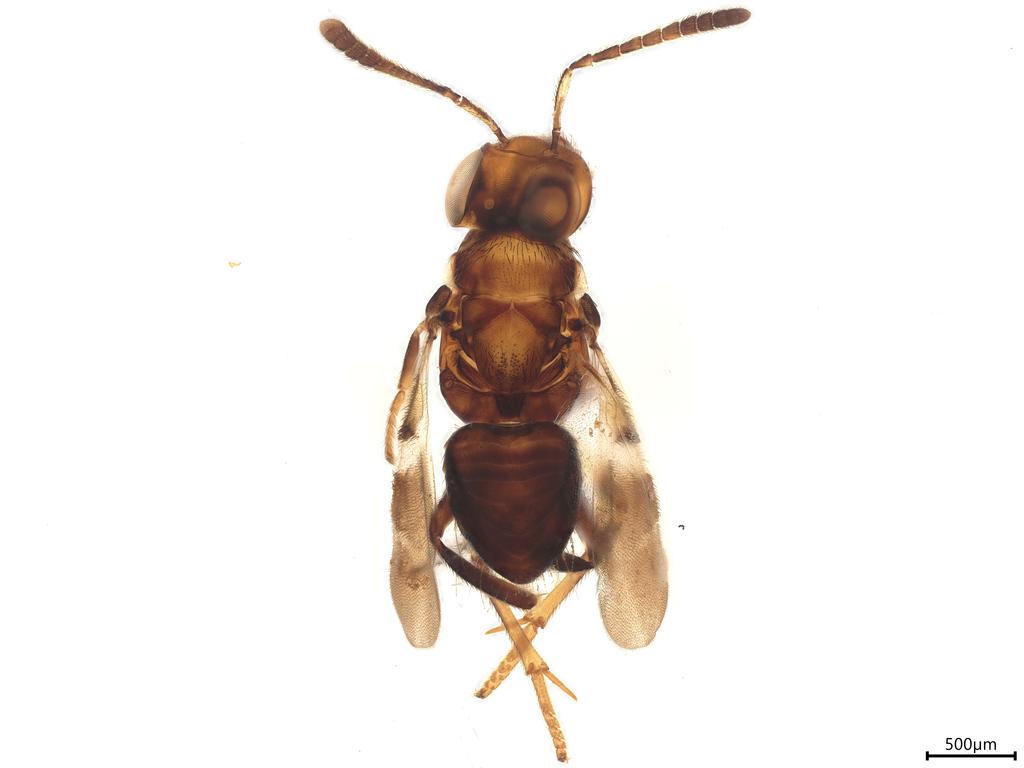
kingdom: Animalia
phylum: Arthropoda
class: Insecta
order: Hymenoptera
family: Encyrtidae
